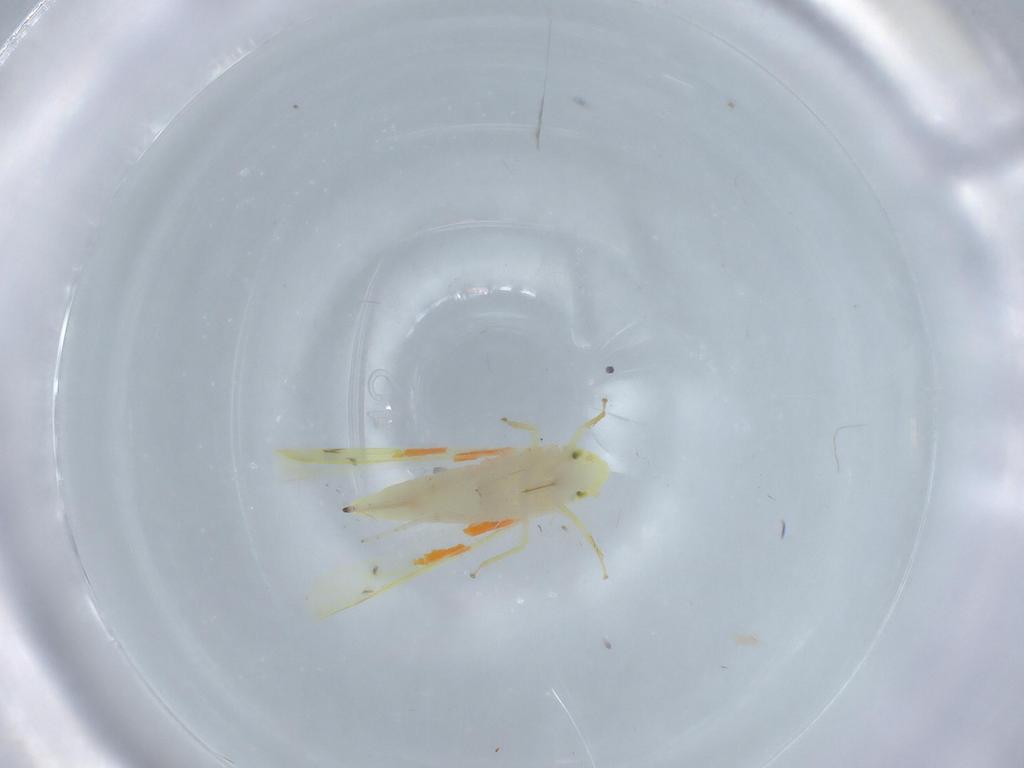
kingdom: Animalia
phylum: Arthropoda
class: Insecta
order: Hemiptera
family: Cicadellidae
